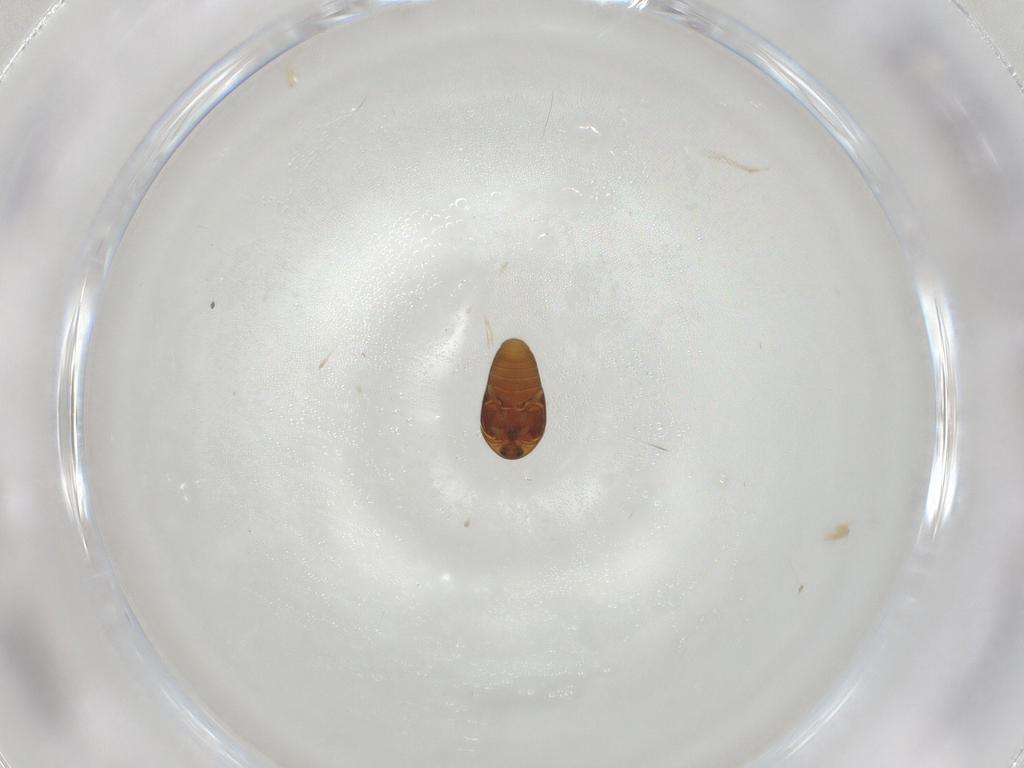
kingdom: Animalia
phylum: Arthropoda
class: Insecta
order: Coleoptera
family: Corylophidae
